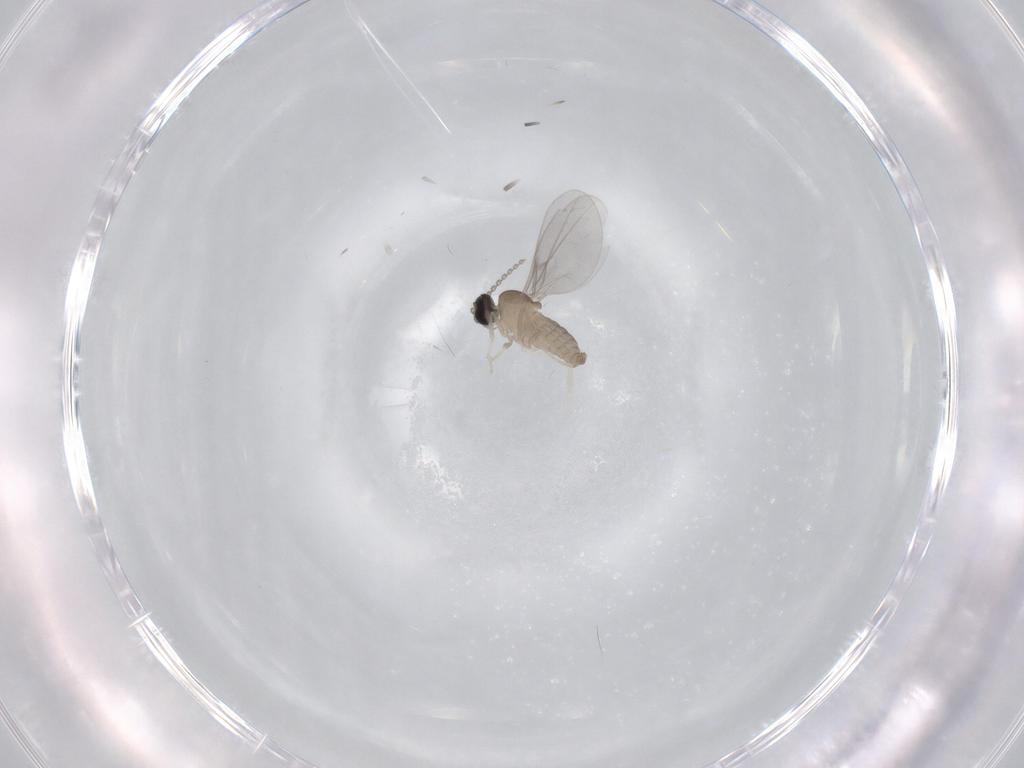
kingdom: Animalia
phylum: Arthropoda
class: Insecta
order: Diptera
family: Cecidomyiidae
